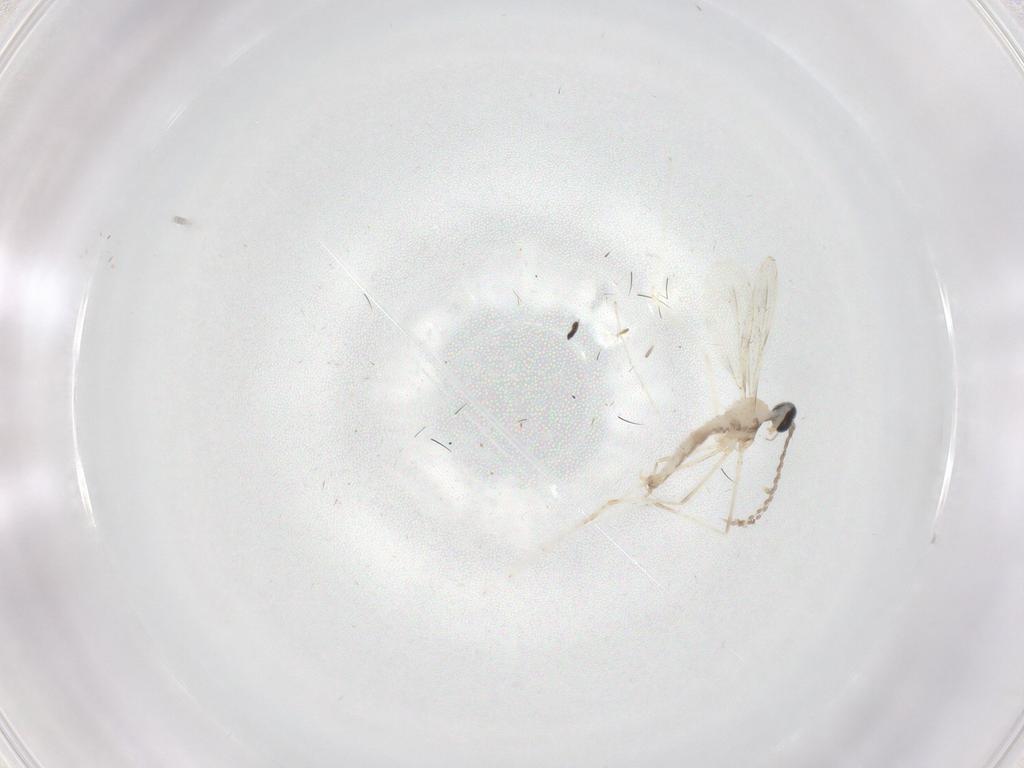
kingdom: Animalia
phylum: Arthropoda
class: Insecta
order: Diptera
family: Cecidomyiidae
